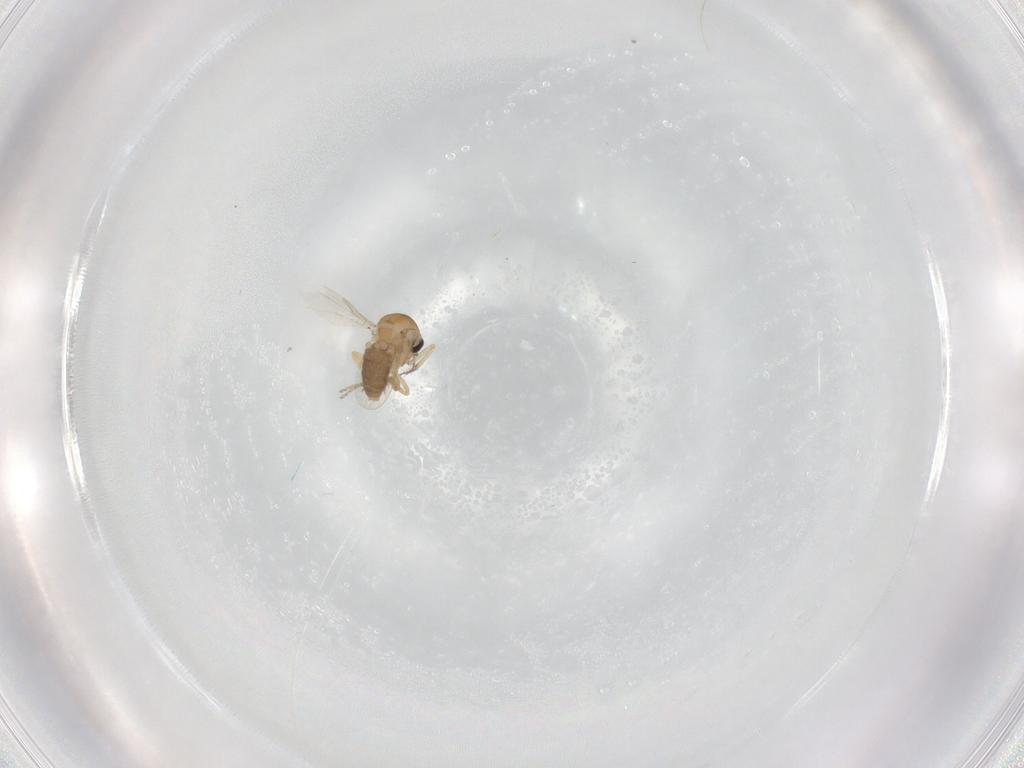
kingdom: Animalia
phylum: Arthropoda
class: Insecta
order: Diptera
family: Ceratopogonidae
